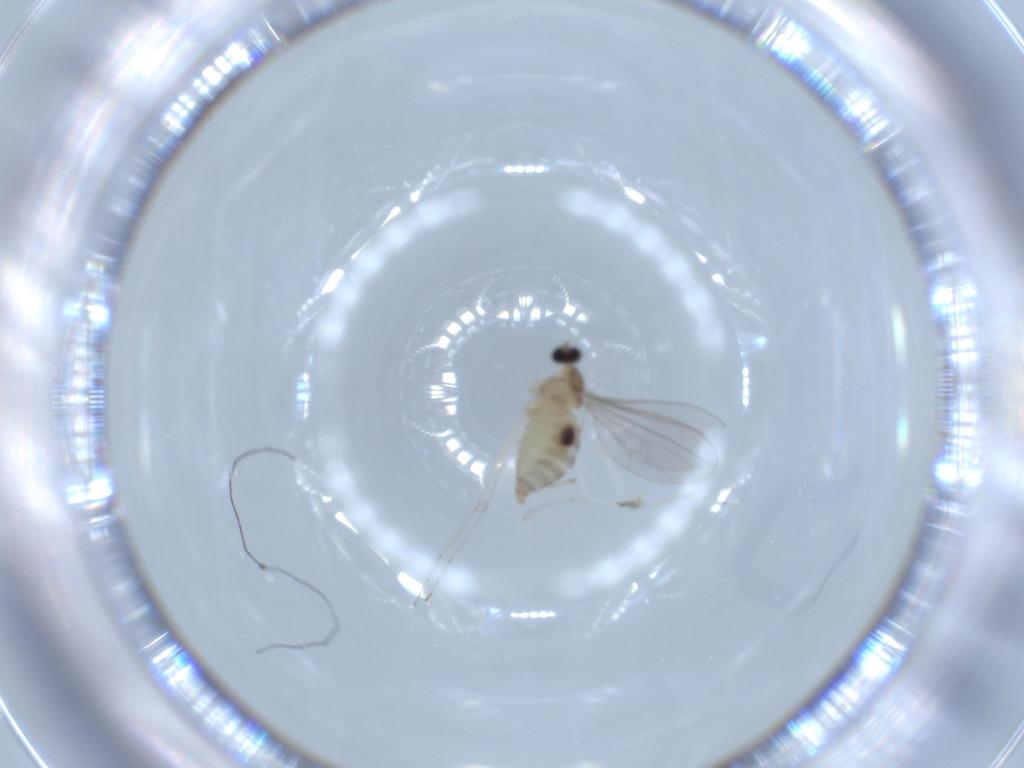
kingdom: Animalia
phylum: Arthropoda
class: Insecta
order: Diptera
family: Cecidomyiidae
